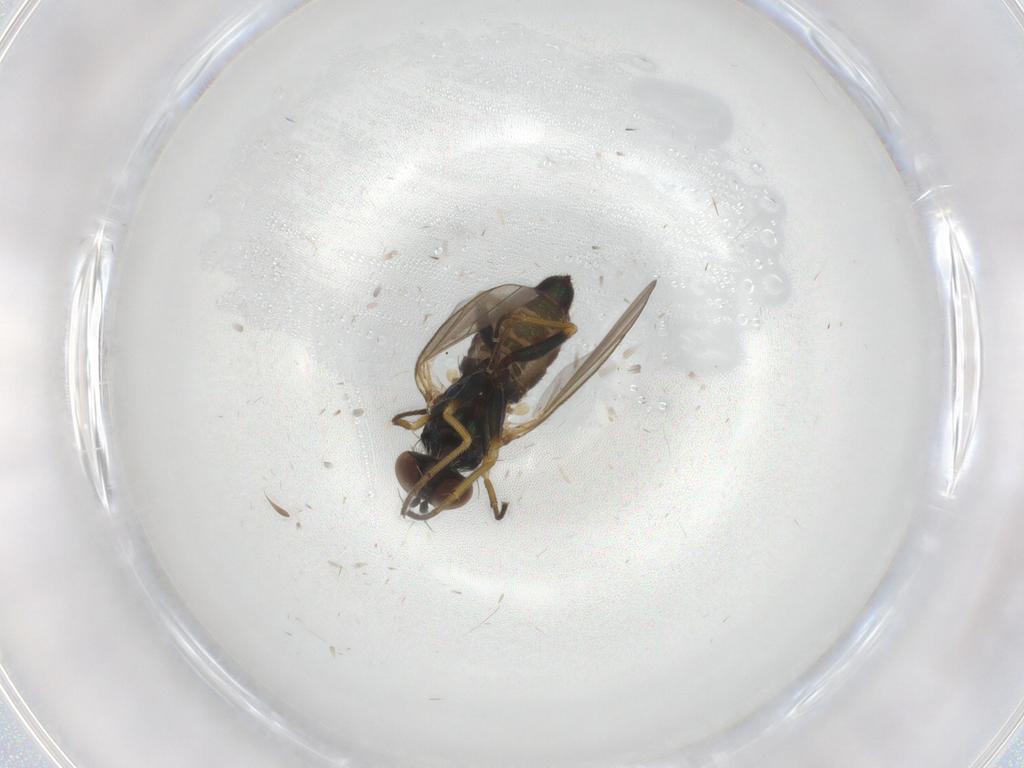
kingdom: Animalia
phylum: Arthropoda
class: Insecta
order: Diptera
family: Dolichopodidae
